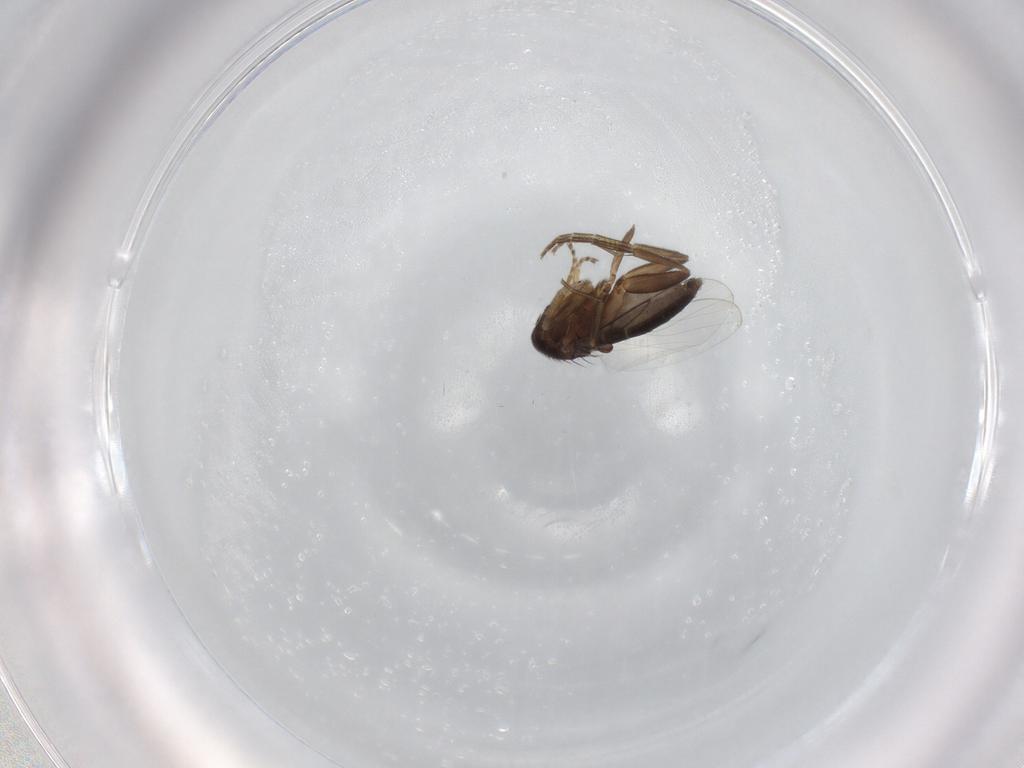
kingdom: Animalia
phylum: Arthropoda
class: Insecta
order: Diptera
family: Phoridae
